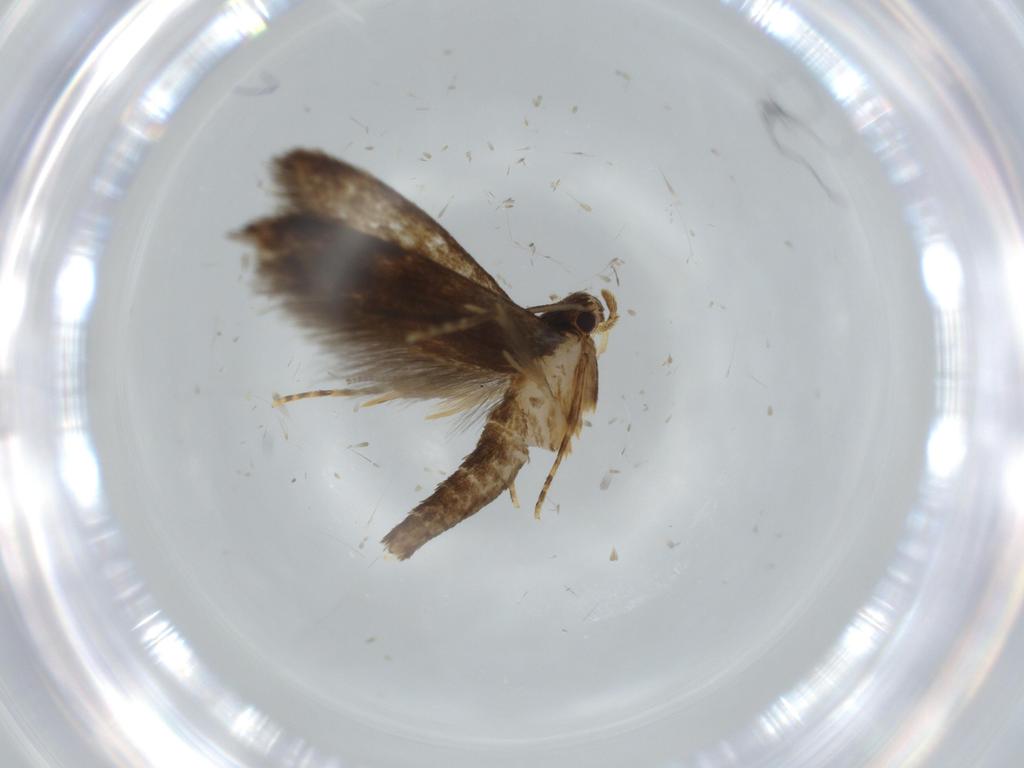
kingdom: Animalia
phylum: Arthropoda
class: Insecta
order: Lepidoptera
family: Tineidae
